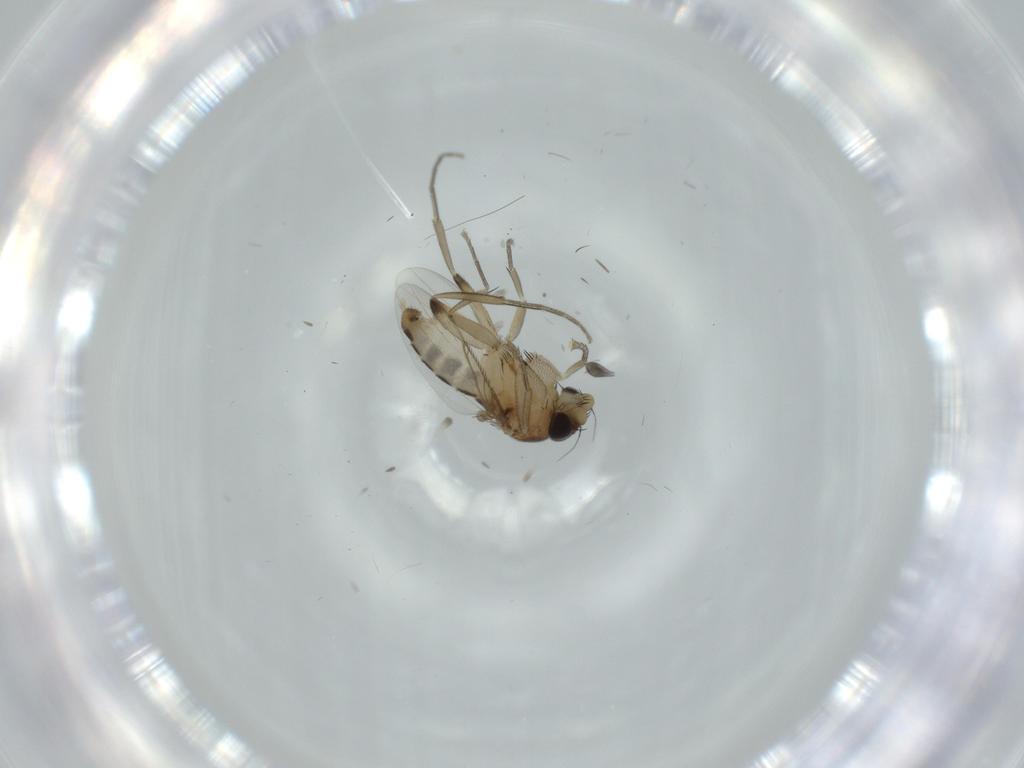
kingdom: Animalia
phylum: Arthropoda
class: Insecta
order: Diptera
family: Phoridae
